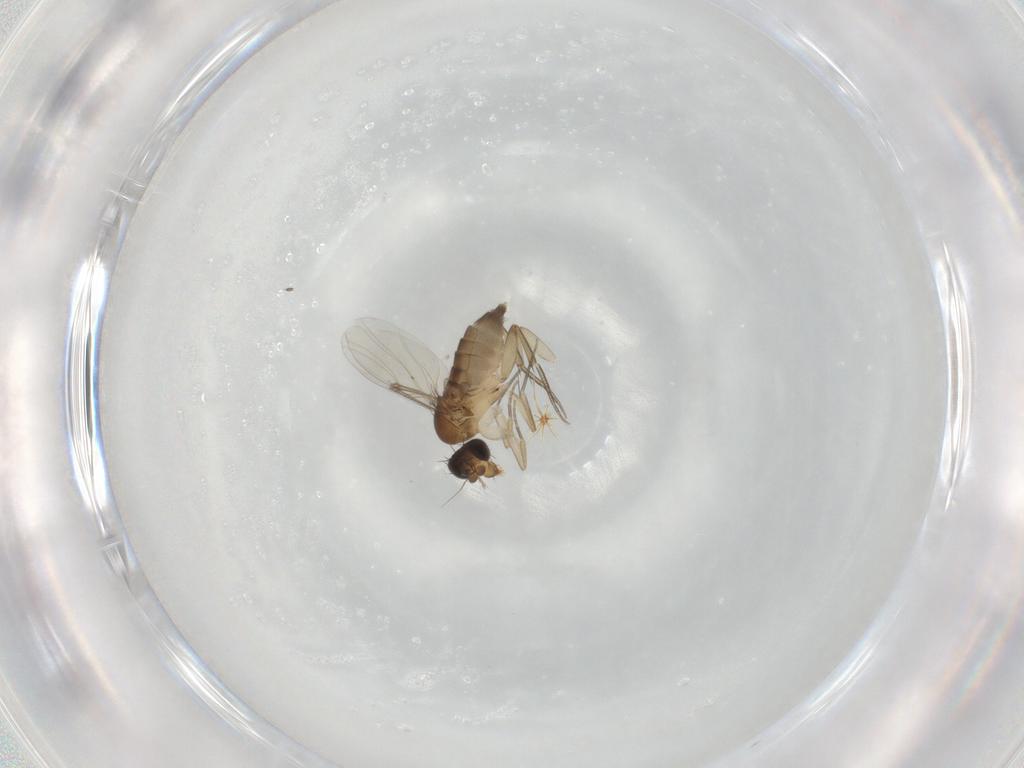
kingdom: Animalia
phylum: Arthropoda
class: Insecta
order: Diptera
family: Phoridae
